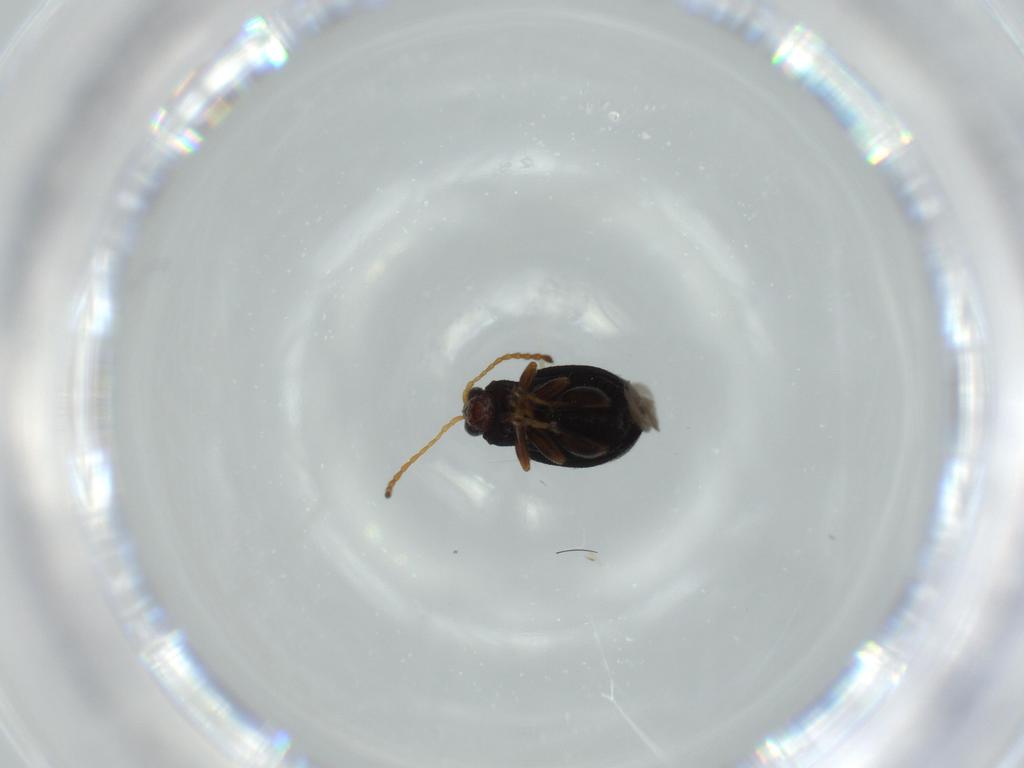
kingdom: Animalia
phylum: Arthropoda
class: Insecta
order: Coleoptera
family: Chrysomelidae
